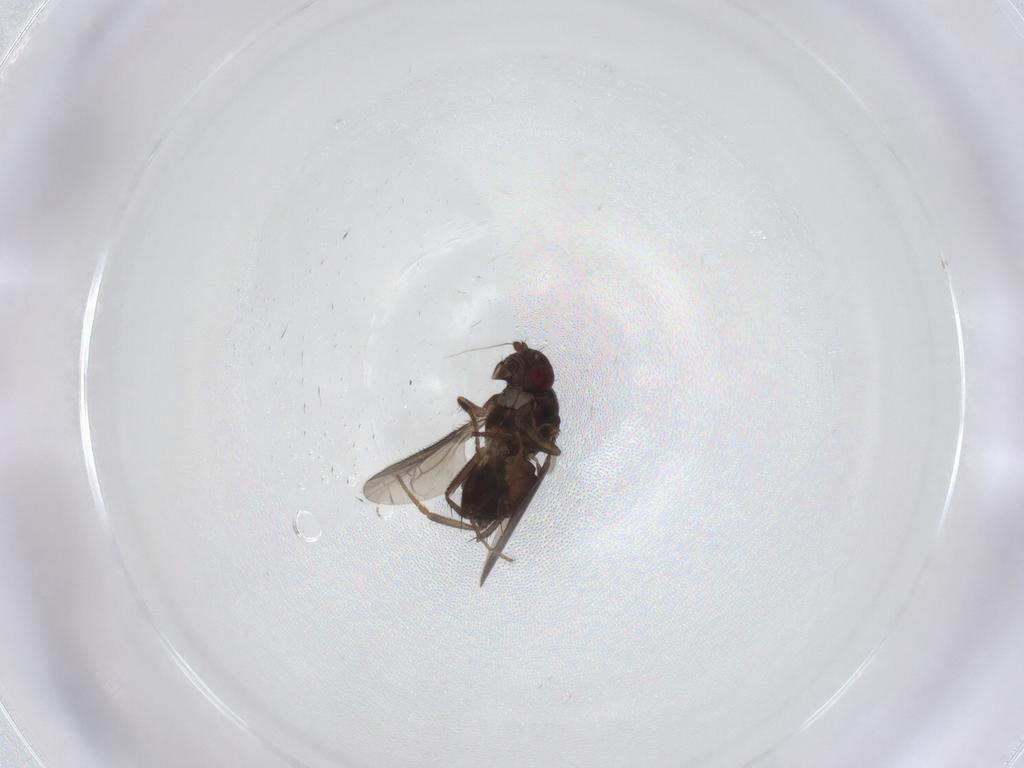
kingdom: Animalia
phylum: Arthropoda
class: Insecta
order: Diptera
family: Sphaeroceridae
